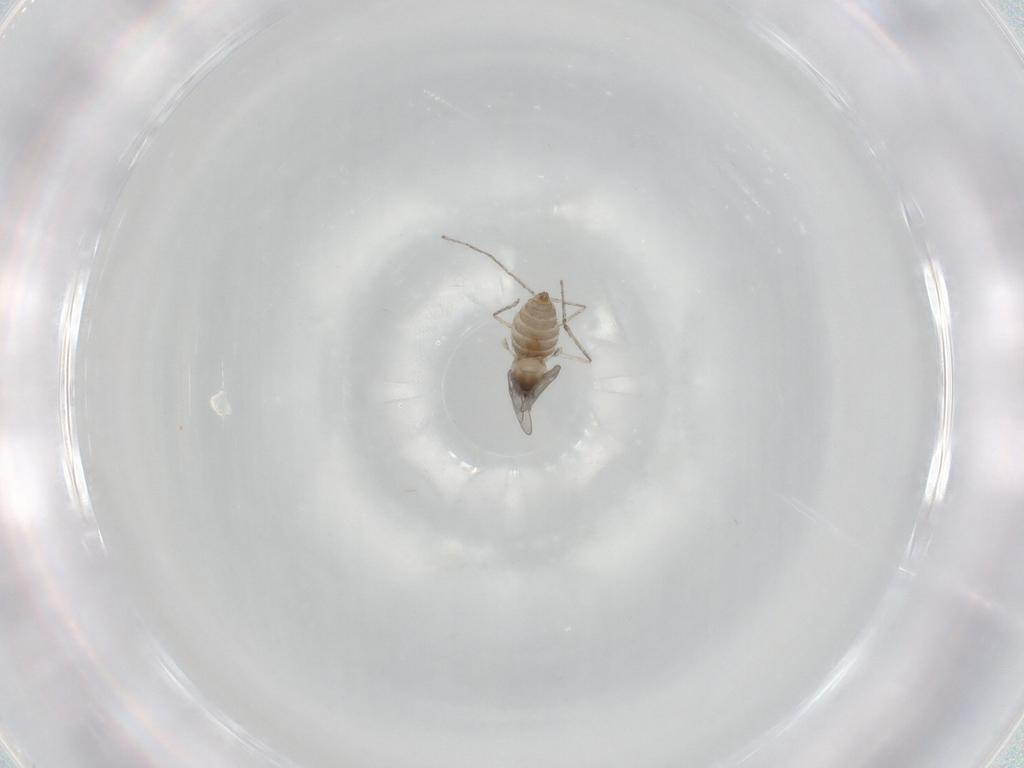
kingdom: Animalia
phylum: Arthropoda
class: Insecta
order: Diptera
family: Cecidomyiidae
